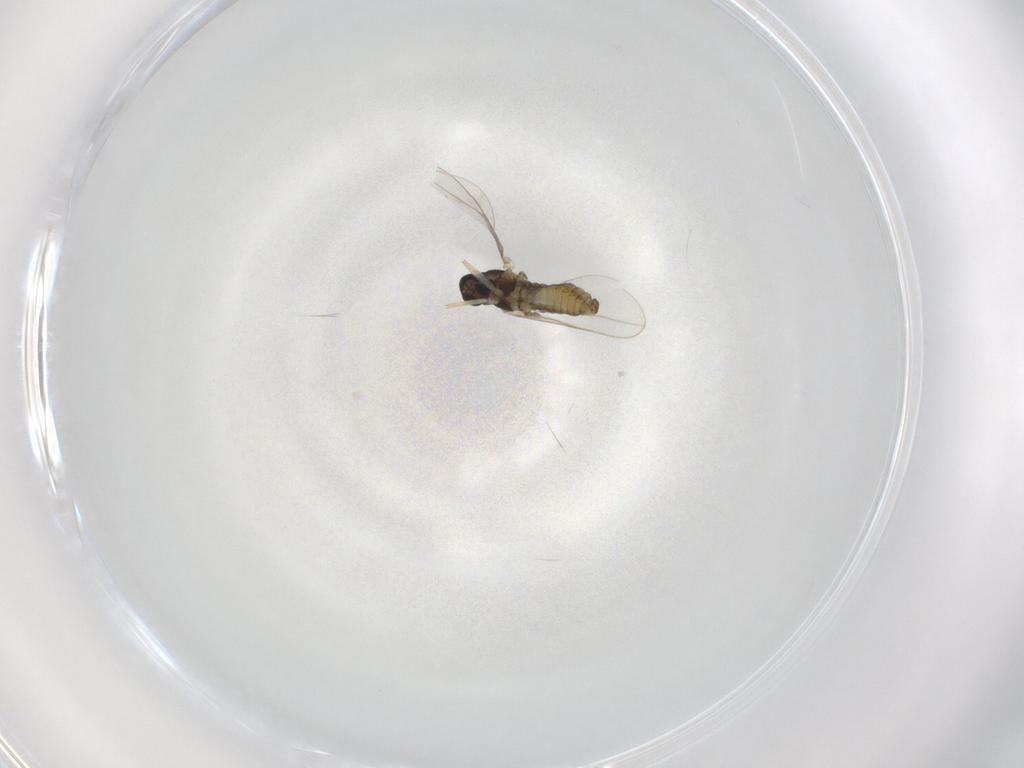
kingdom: Animalia
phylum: Arthropoda
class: Insecta
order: Diptera
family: Cecidomyiidae
